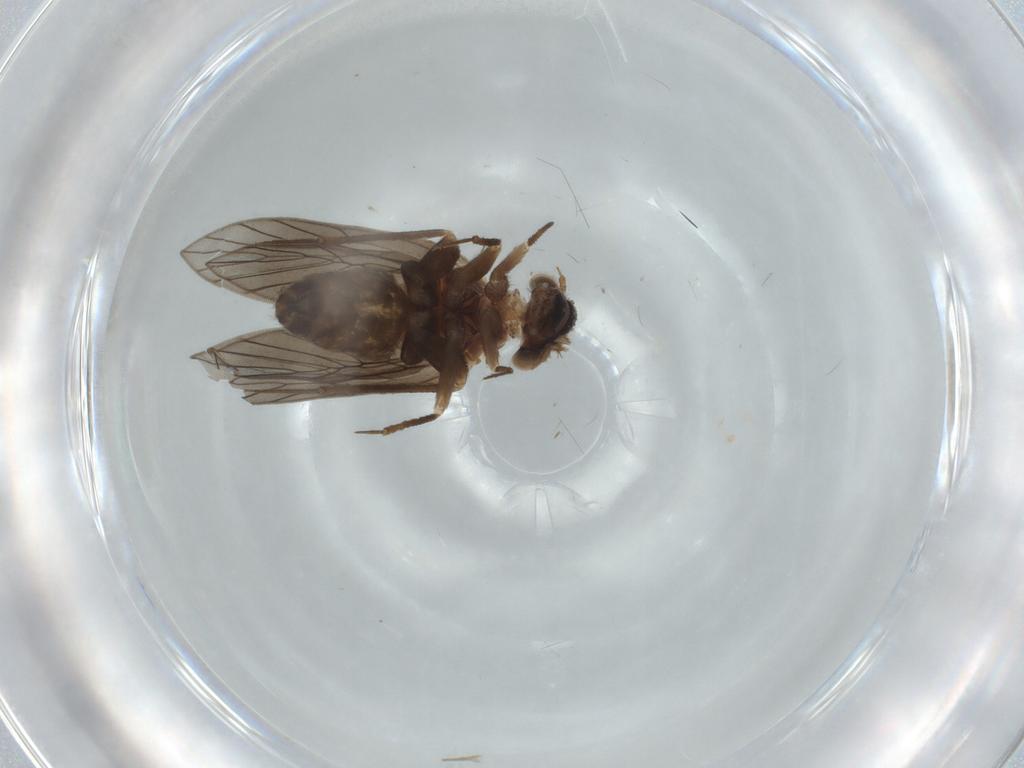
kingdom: Animalia
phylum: Arthropoda
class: Insecta
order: Psocodea
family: Lepidopsocidae
